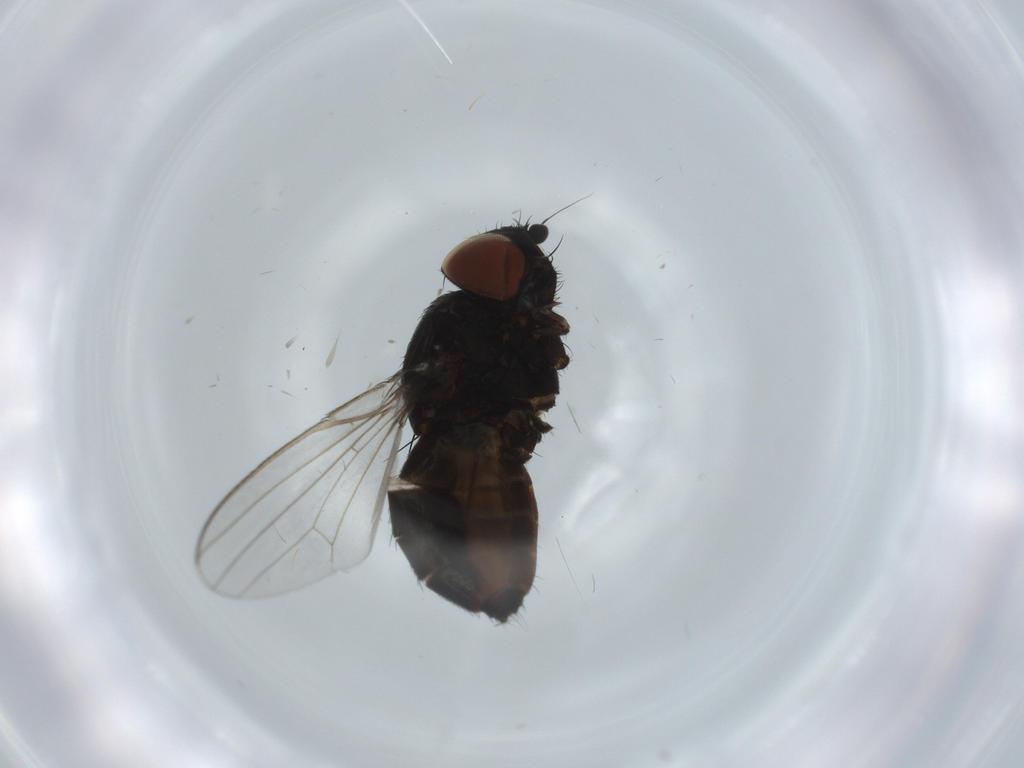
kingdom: Animalia
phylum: Arthropoda
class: Insecta
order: Diptera
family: Milichiidae
